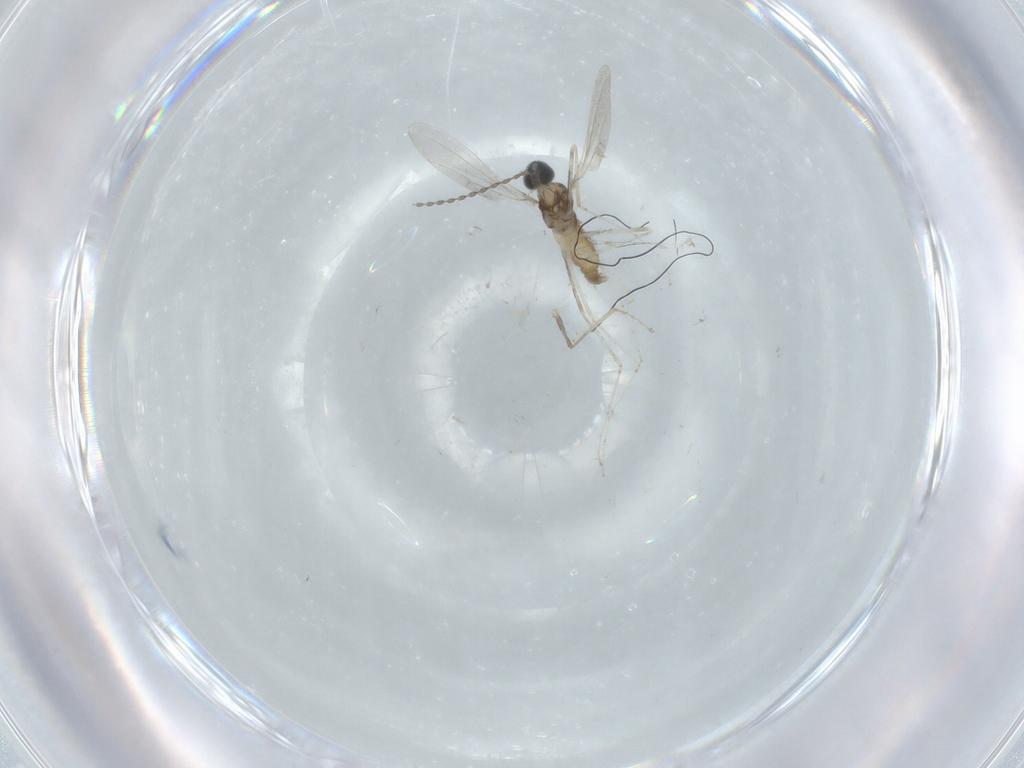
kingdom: Animalia
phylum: Arthropoda
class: Insecta
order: Diptera
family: Cecidomyiidae
